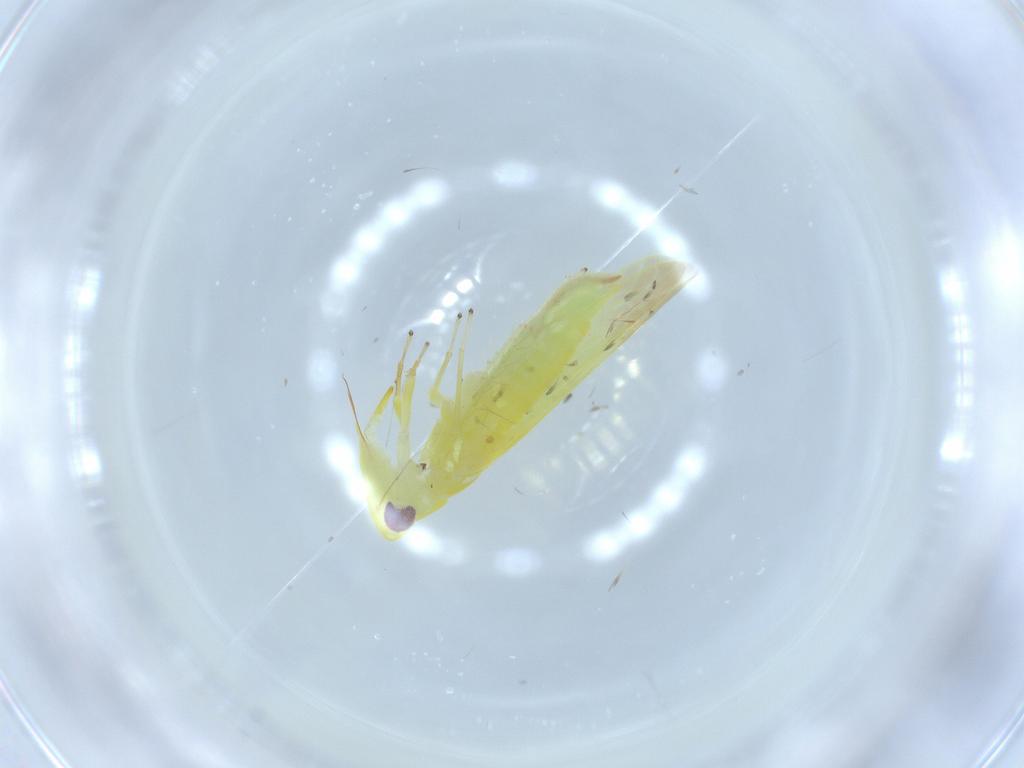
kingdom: Animalia
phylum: Arthropoda
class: Insecta
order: Hemiptera
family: Cicadellidae
